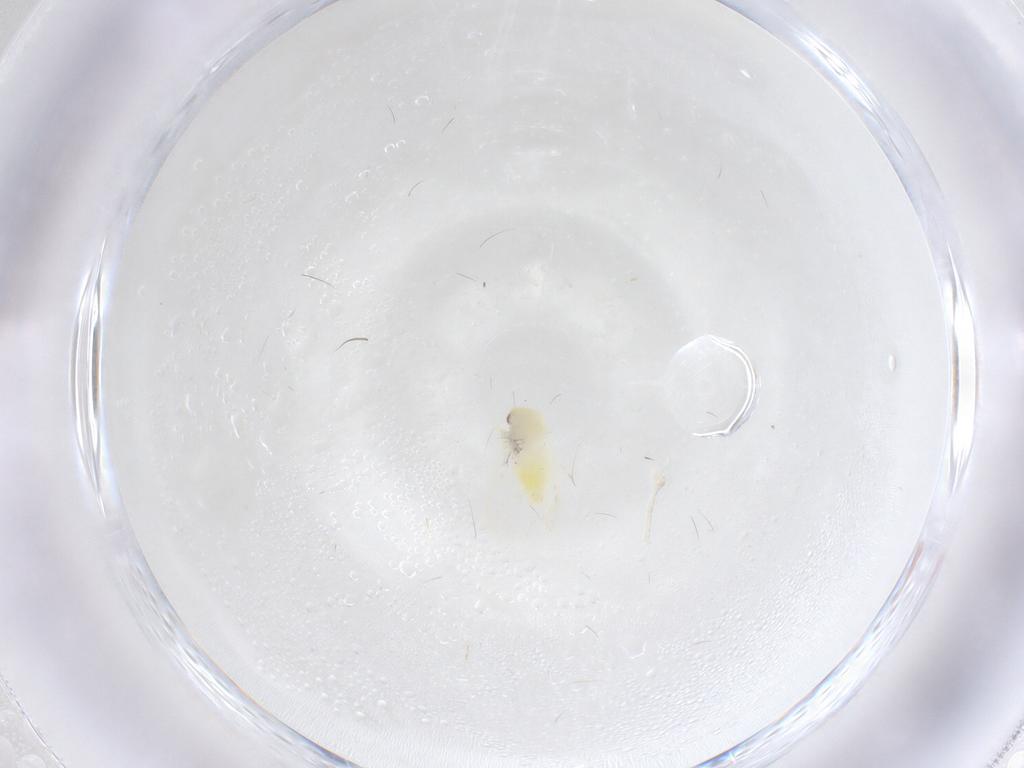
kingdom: Animalia
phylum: Arthropoda
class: Insecta
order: Hemiptera
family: Aleyrodidae
